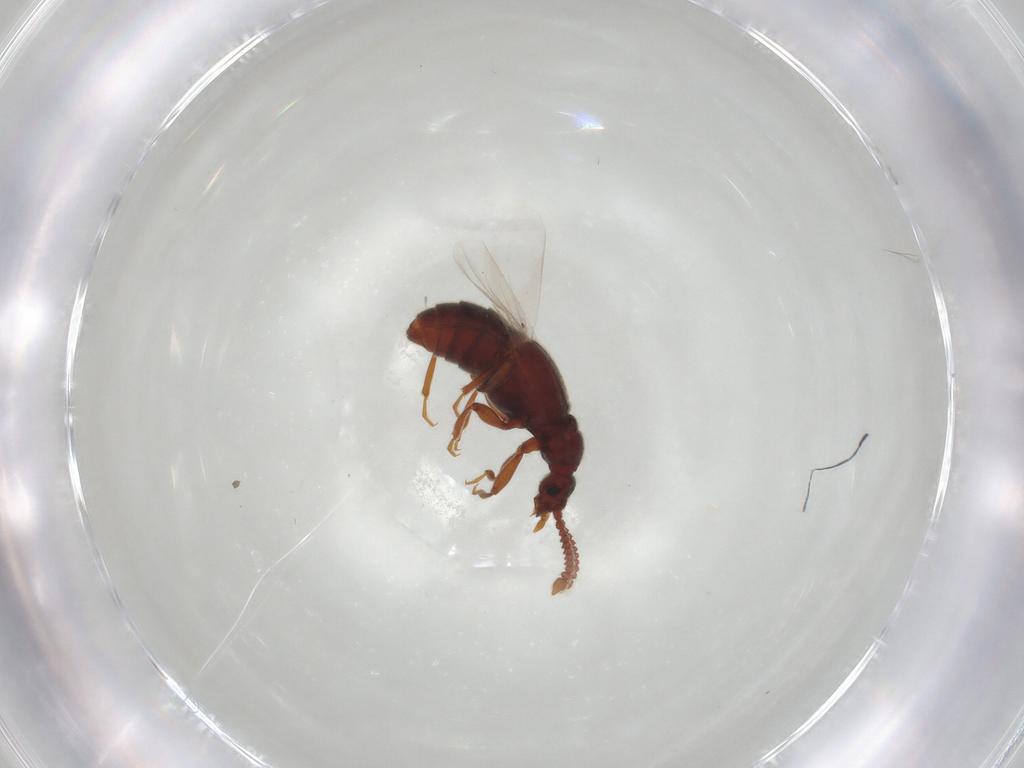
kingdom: Animalia
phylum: Arthropoda
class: Insecta
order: Coleoptera
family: Staphylinidae
